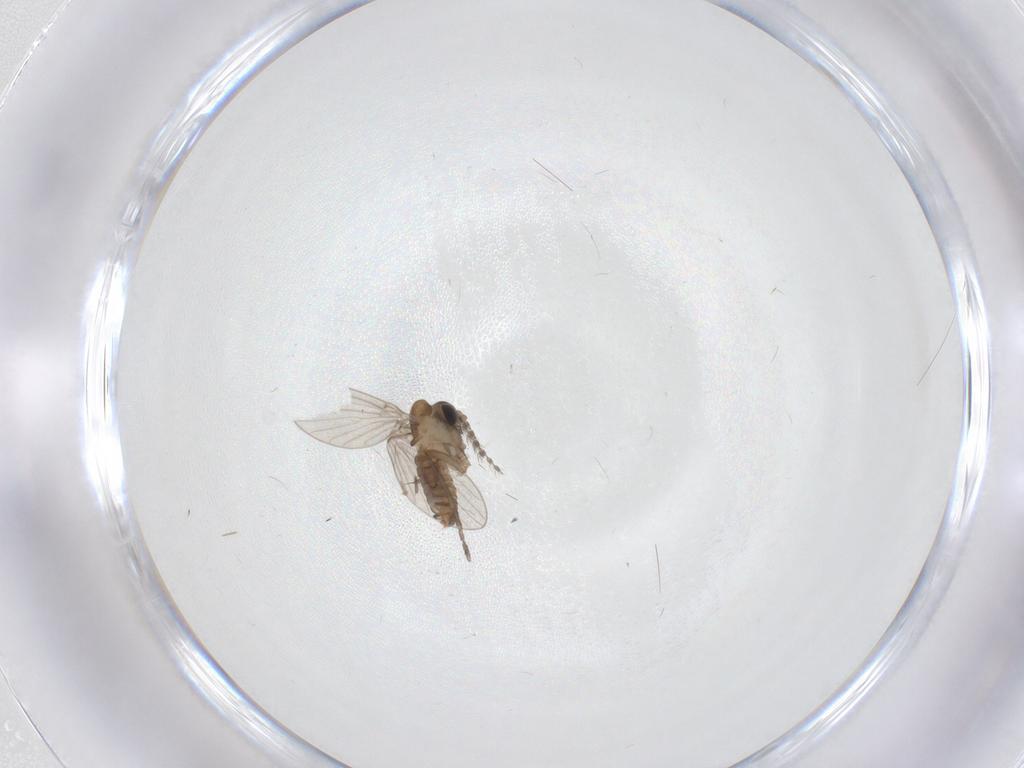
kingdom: Animalia
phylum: Arthropoda
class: Insecta
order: Diptera
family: Psychodidae
